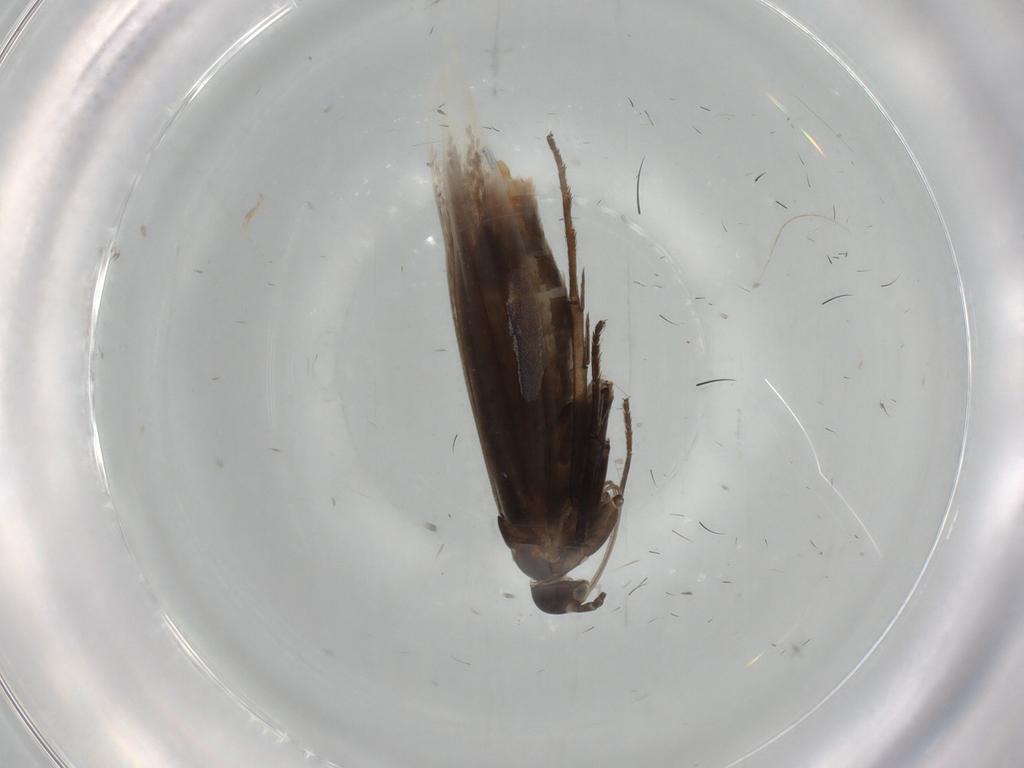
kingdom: Animalia
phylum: Arthropoda
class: Insecta
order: Lepidoptera
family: Coleophoridae
